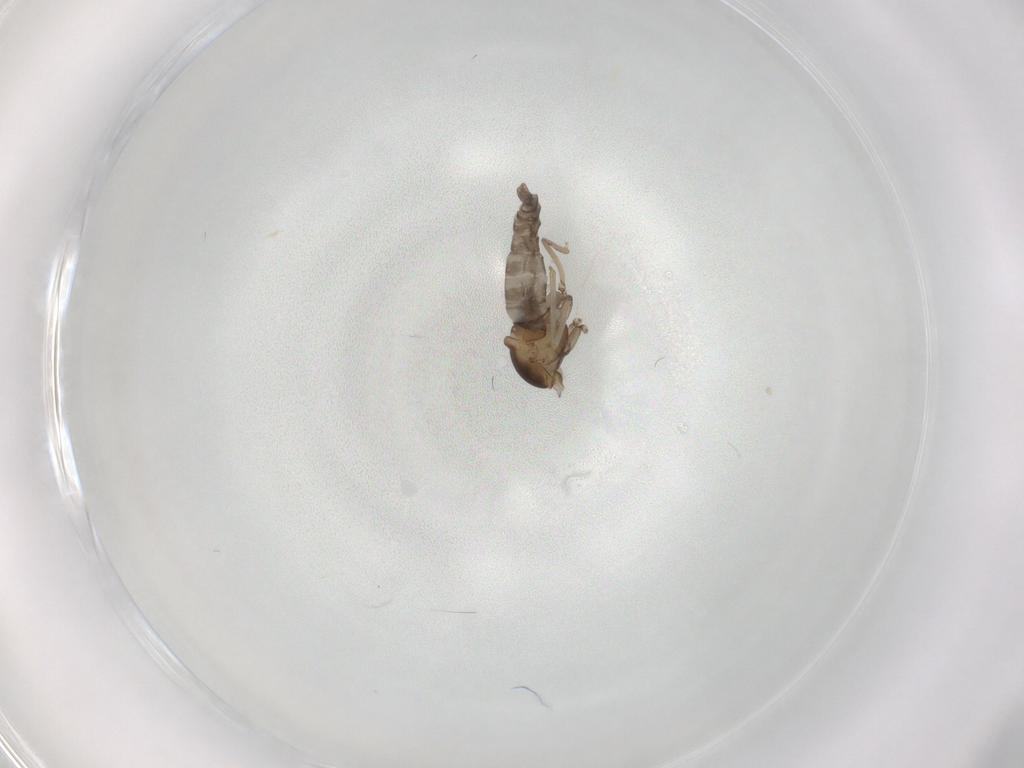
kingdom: Animalia
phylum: Arthropoda
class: Insecta
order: Diptera
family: Cecidomyiidae
